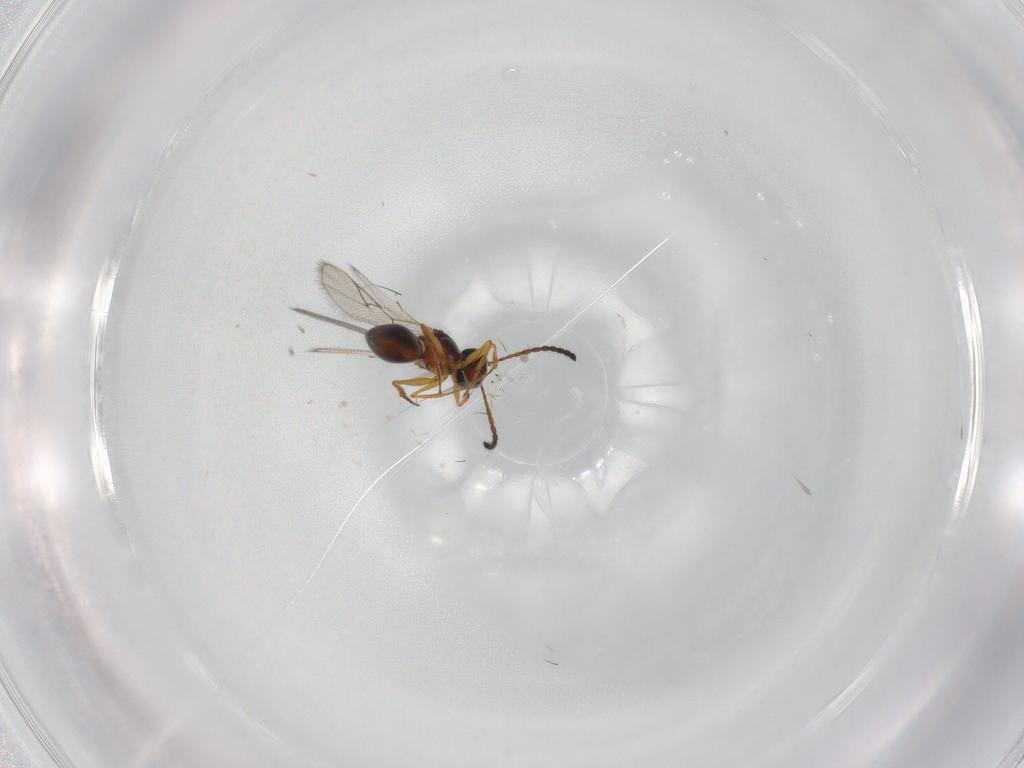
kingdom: Animalia
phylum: Arthropoda
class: Insecta
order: Hymenoptera
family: Figitidae
